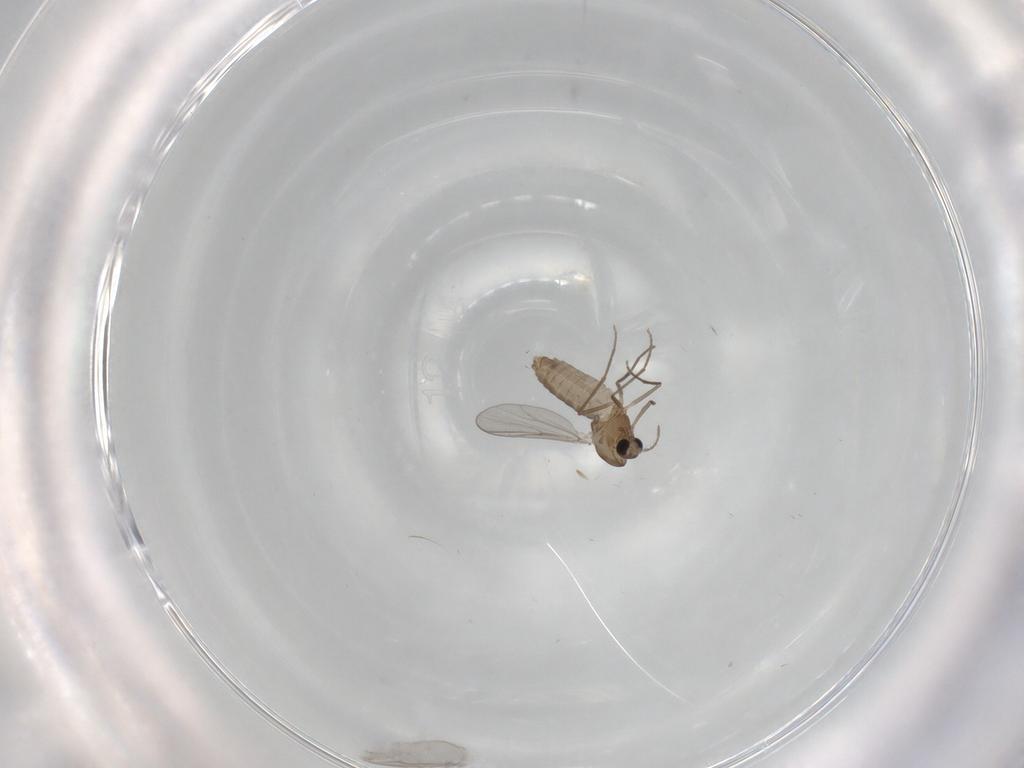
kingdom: Animalia
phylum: Arthropoda
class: Insecta
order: Diptera
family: Chironomidae
